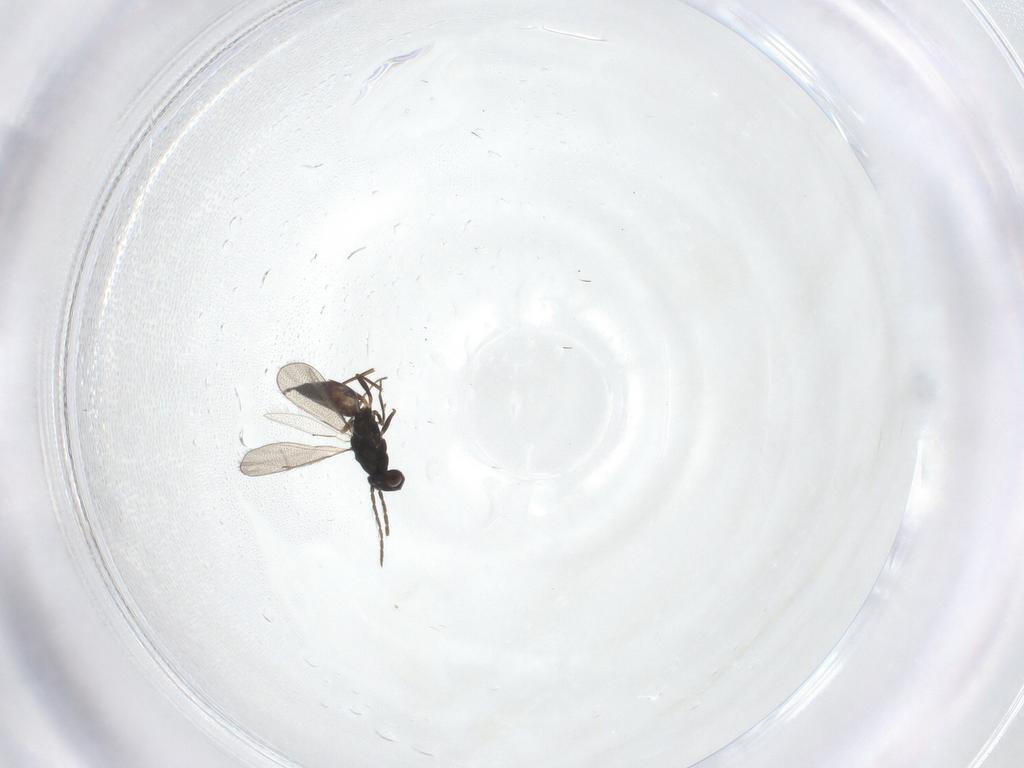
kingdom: Animalia
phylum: Arthropoda
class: Insecta
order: Hymenoptera
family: Eulophidae
